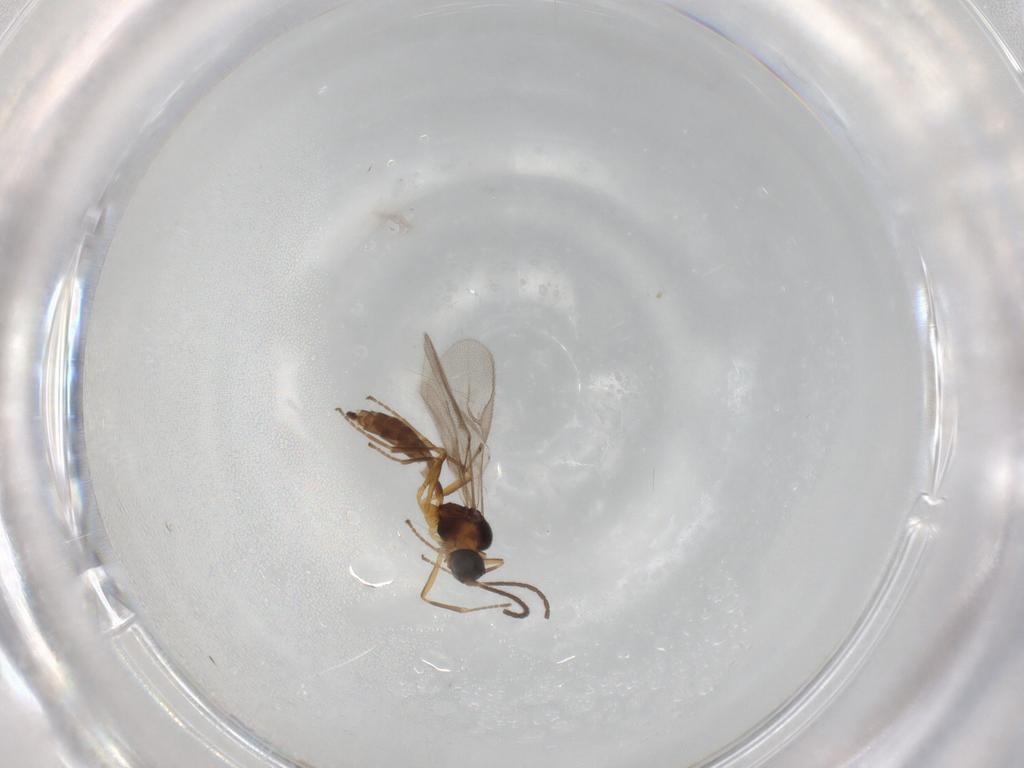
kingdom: Animalia
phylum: Arthropoda
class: Insecta
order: Hymenoptera
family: Braconidae
